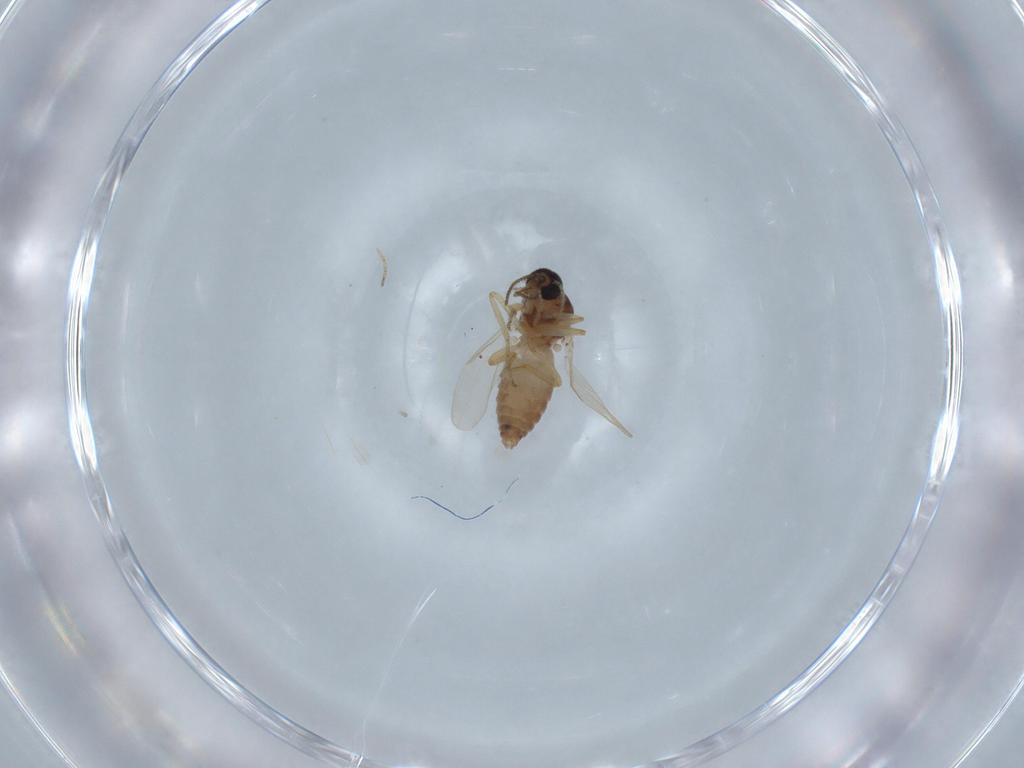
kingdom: Animalia
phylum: Arthropoda
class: Insecta
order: Diptera
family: Ceratopogonidae
